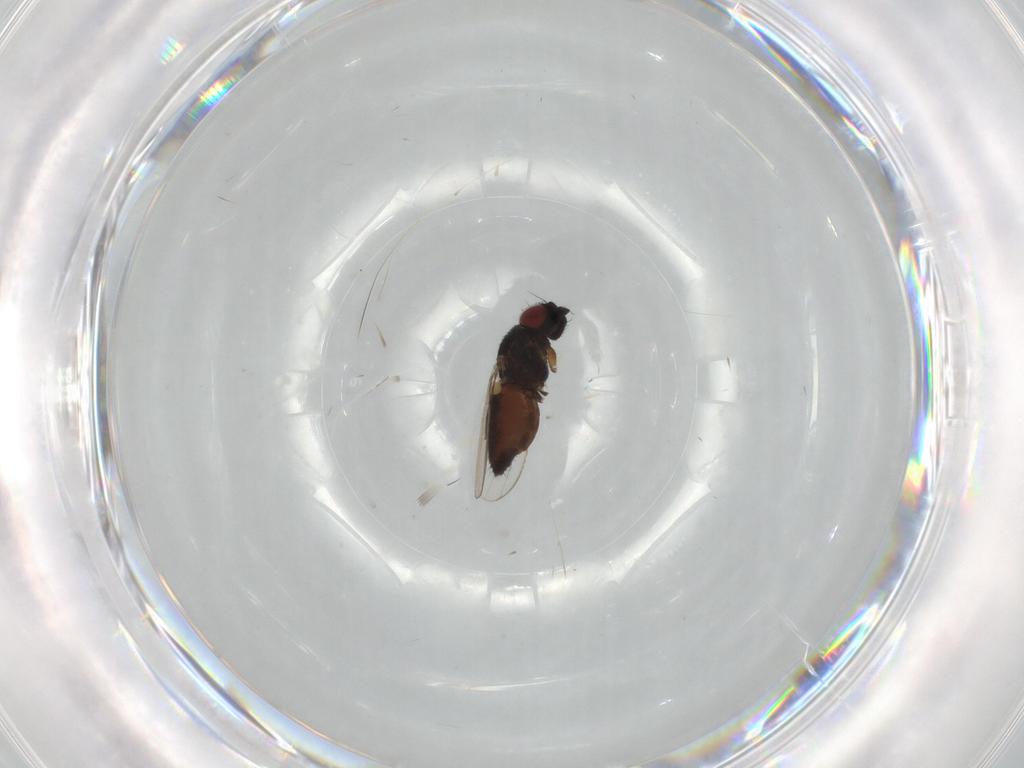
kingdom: Animalia
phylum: Arthropoda
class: Insecta
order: Diptera
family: Milichiidae
